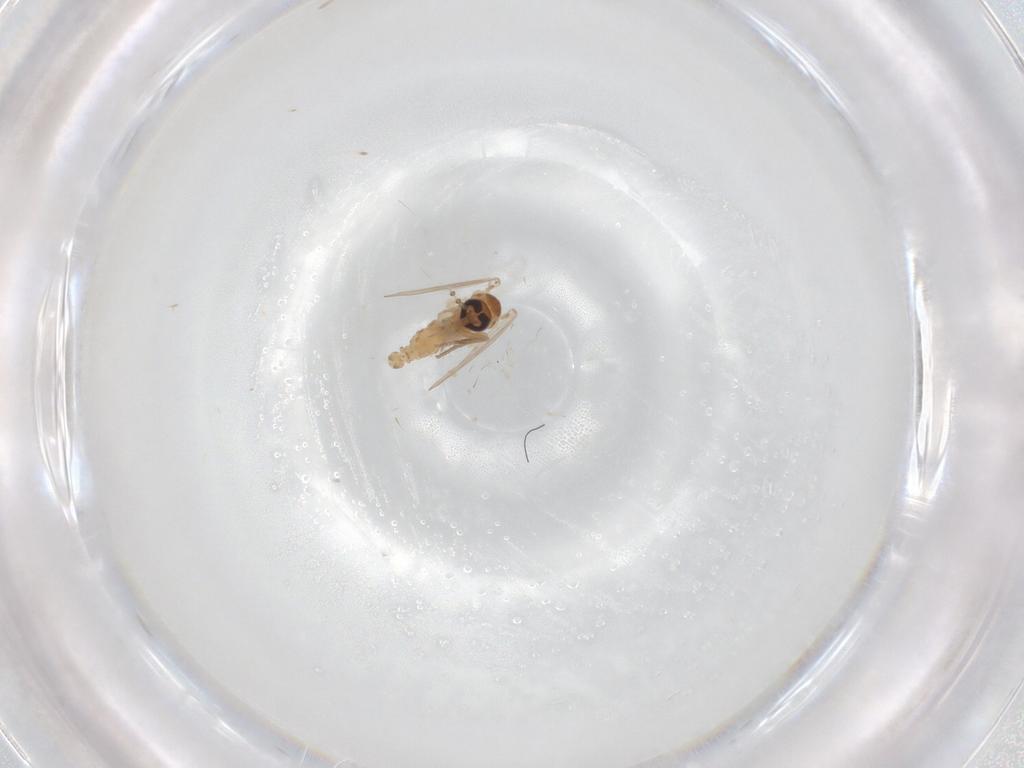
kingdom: Animalia
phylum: Arthropoda
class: Insecta
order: Diptera
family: Psychodidae
